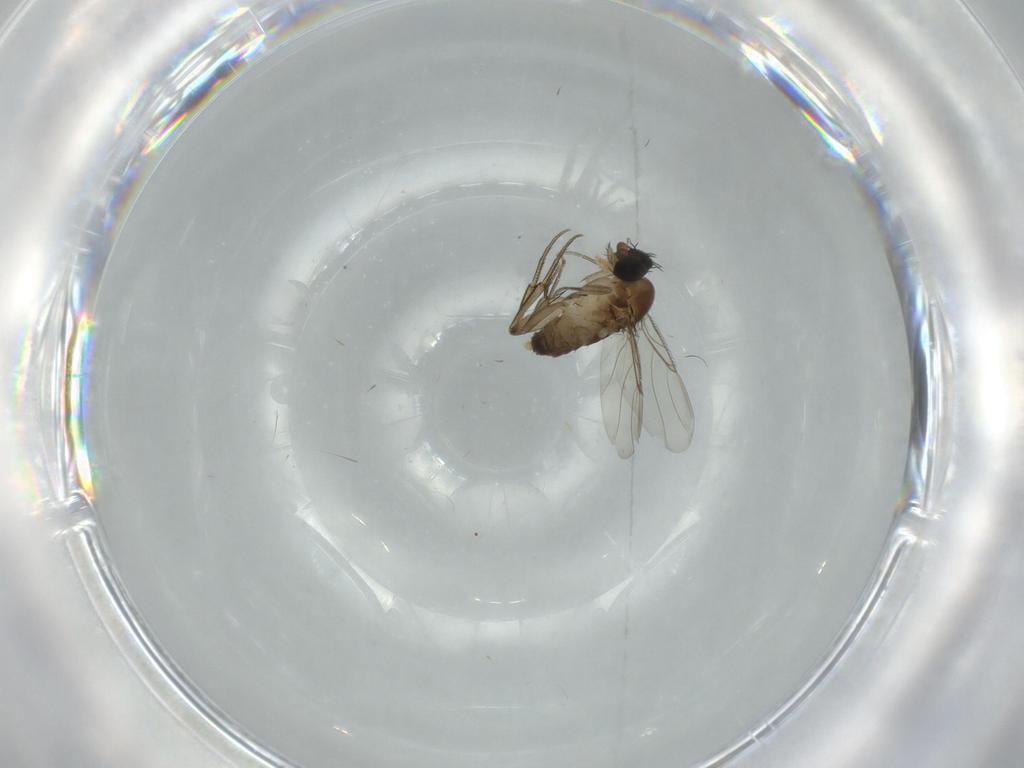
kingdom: Animalia
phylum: Arthropoda
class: Insecta
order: Diptera
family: Phoridae
